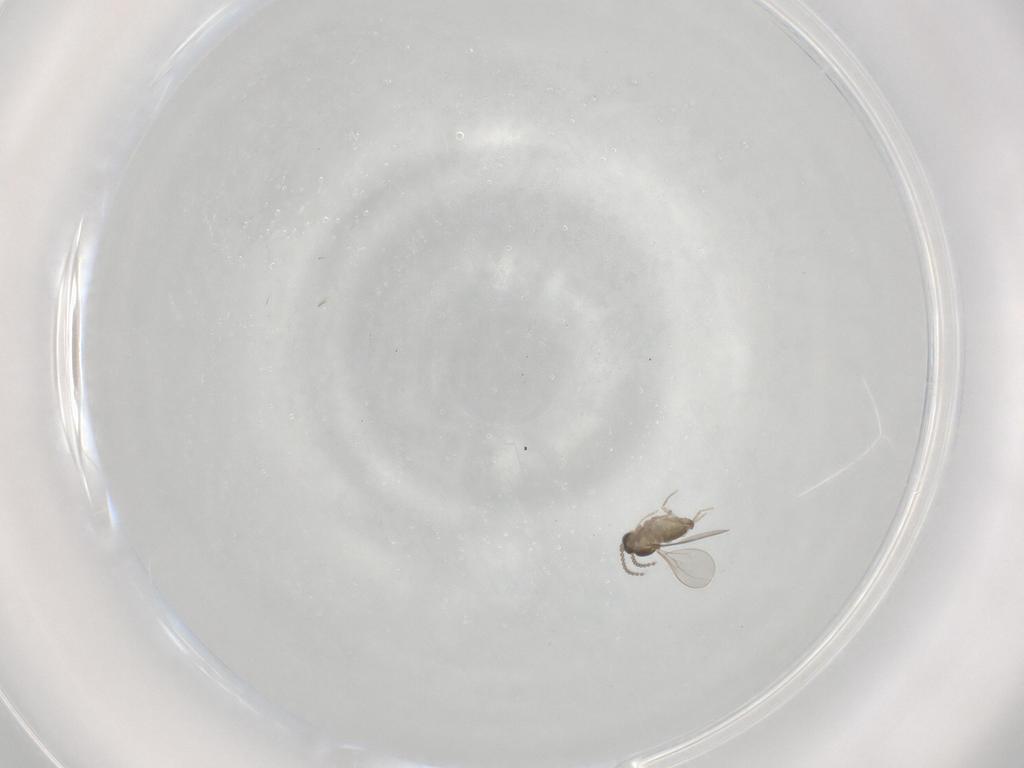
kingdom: Animalia
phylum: Arthropoda
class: Insecta
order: Diptera
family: Cecidomyiidae
